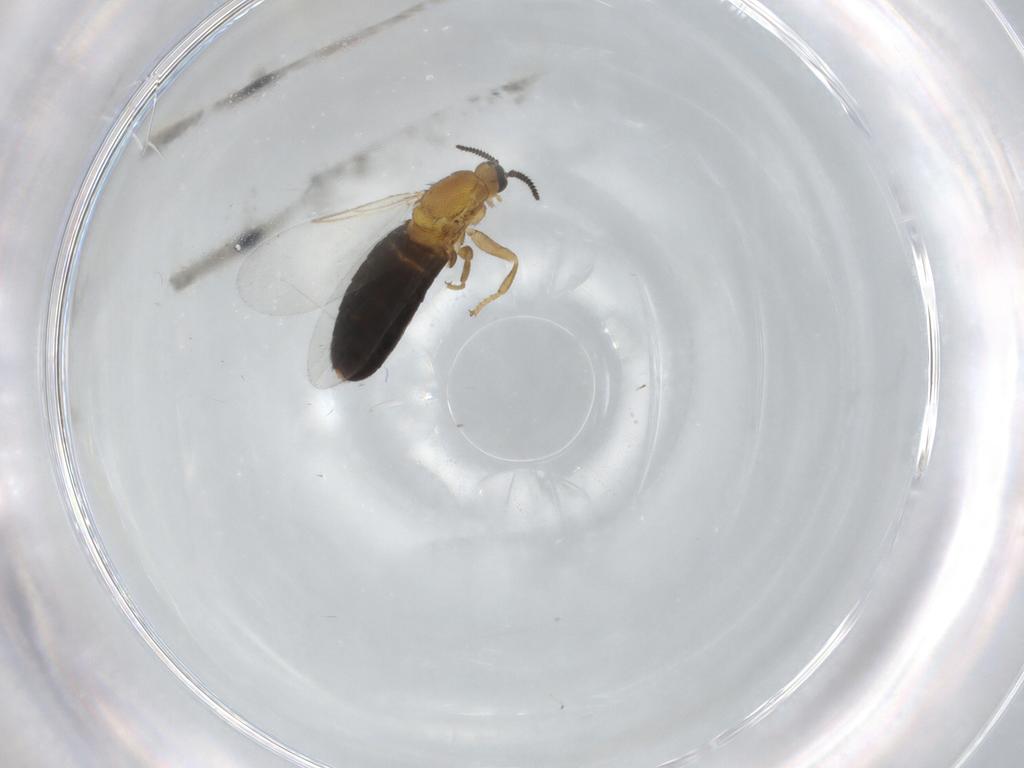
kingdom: Animalia
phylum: Arthropoda
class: Insecta
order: Diptera
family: Scatopsidae
